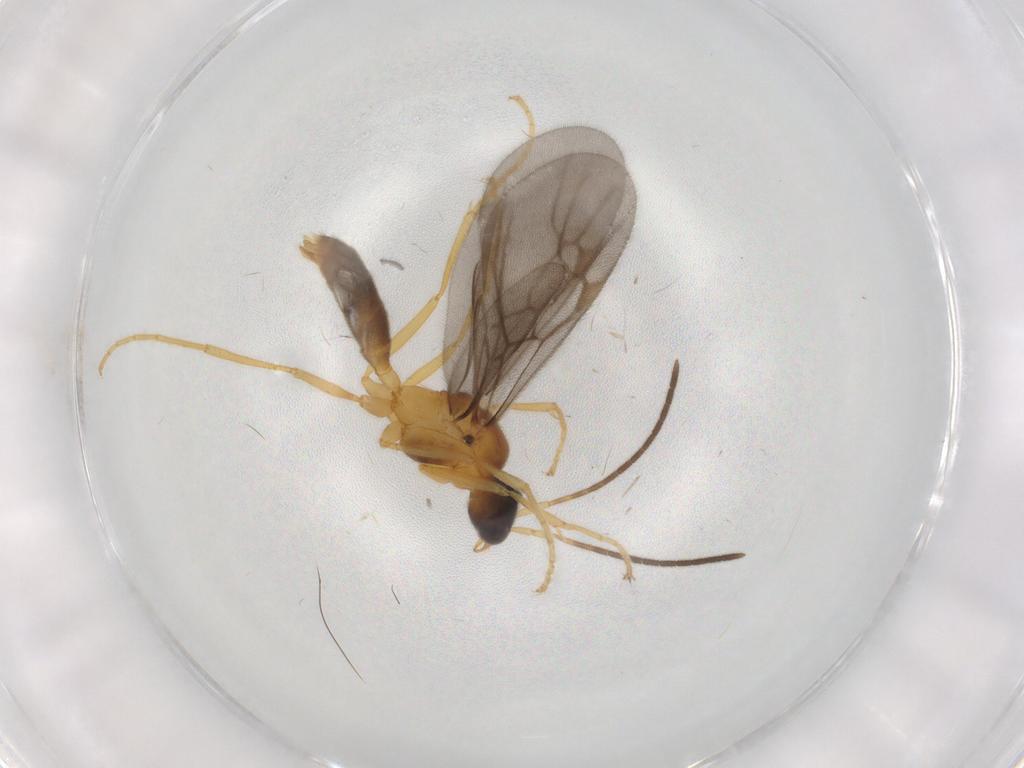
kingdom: Animalia
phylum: Arthropoda
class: Insecta
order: Hymenoptera
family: Formicidae
